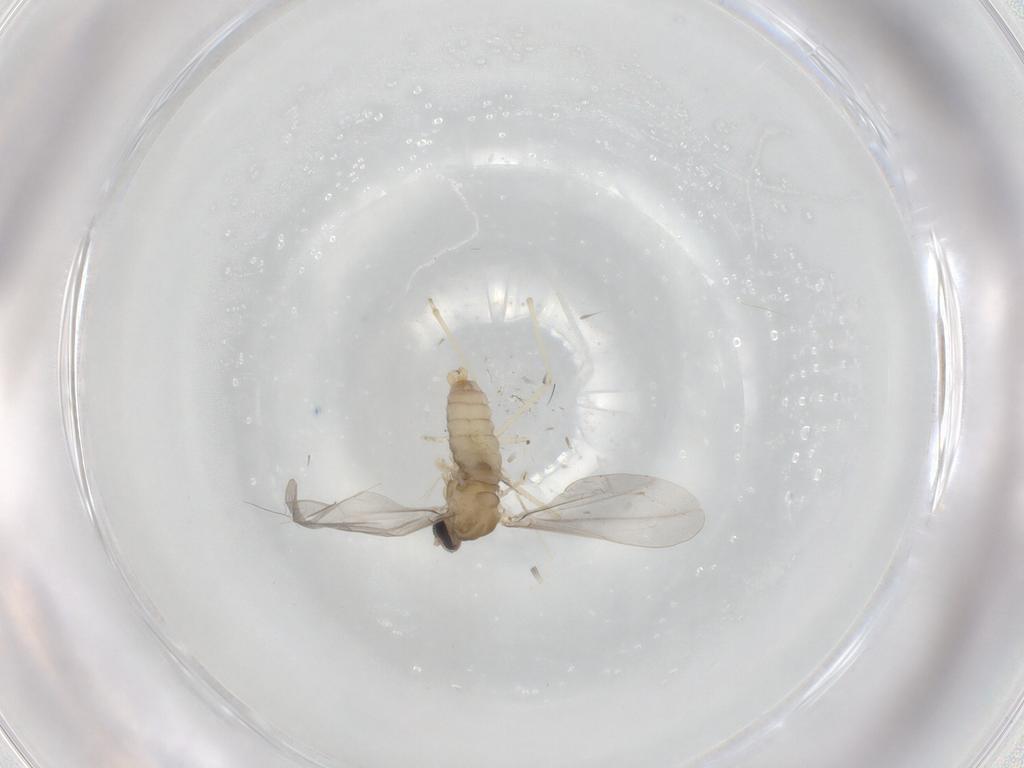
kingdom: Animalia
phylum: Arthropoda
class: Insecta
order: Diptera
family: Cecidomyiidae
